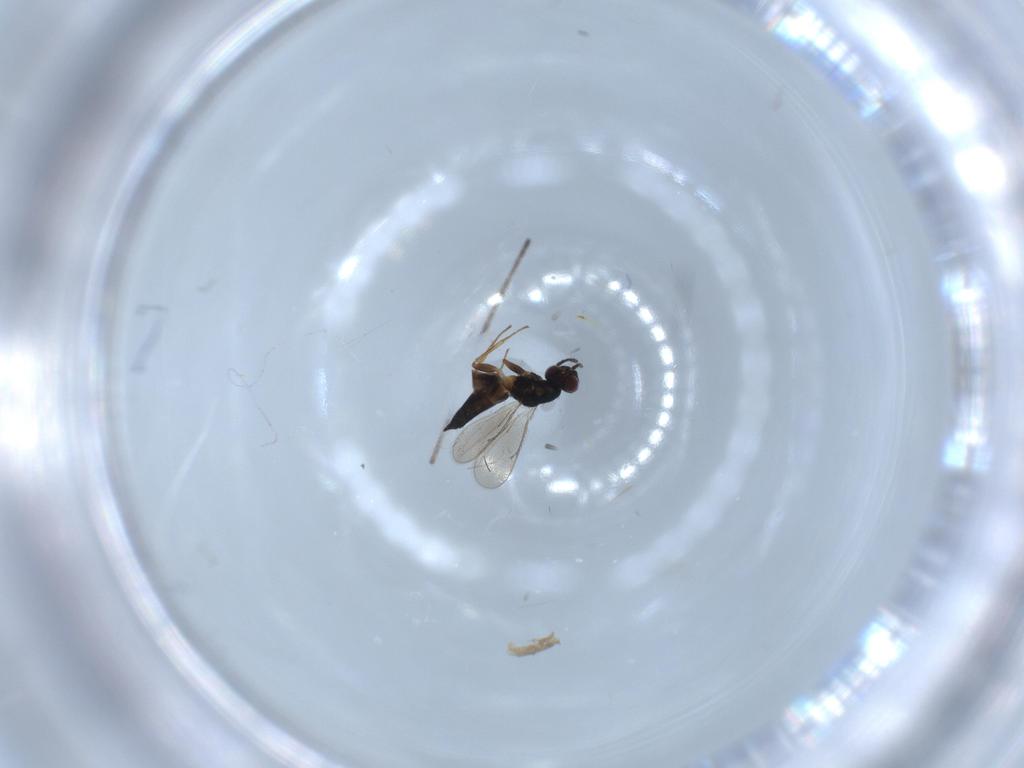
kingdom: Animalia
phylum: Arthropoda
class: Insecta
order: Hymenoptera
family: Eulophidae
